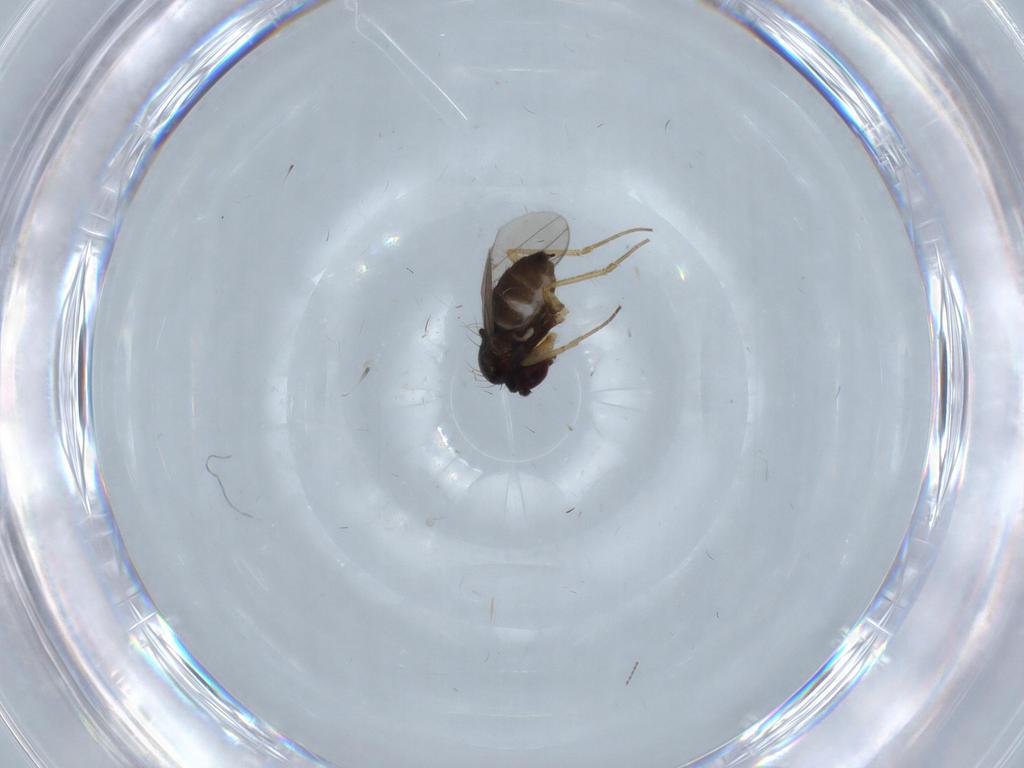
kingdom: Animalia
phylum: Arthropoda
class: Insecta
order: Diptera
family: Dolichopodidae
